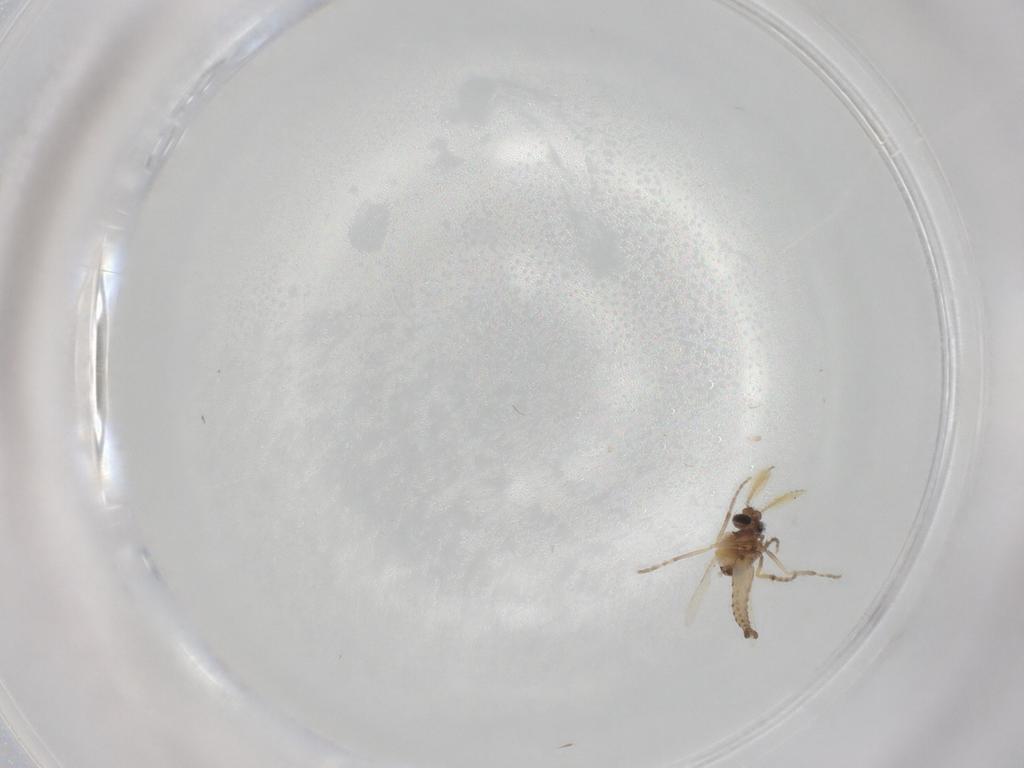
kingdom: Animalia
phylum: Arthropoda
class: Insecta
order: Diptera
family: Cecidomyiidae
